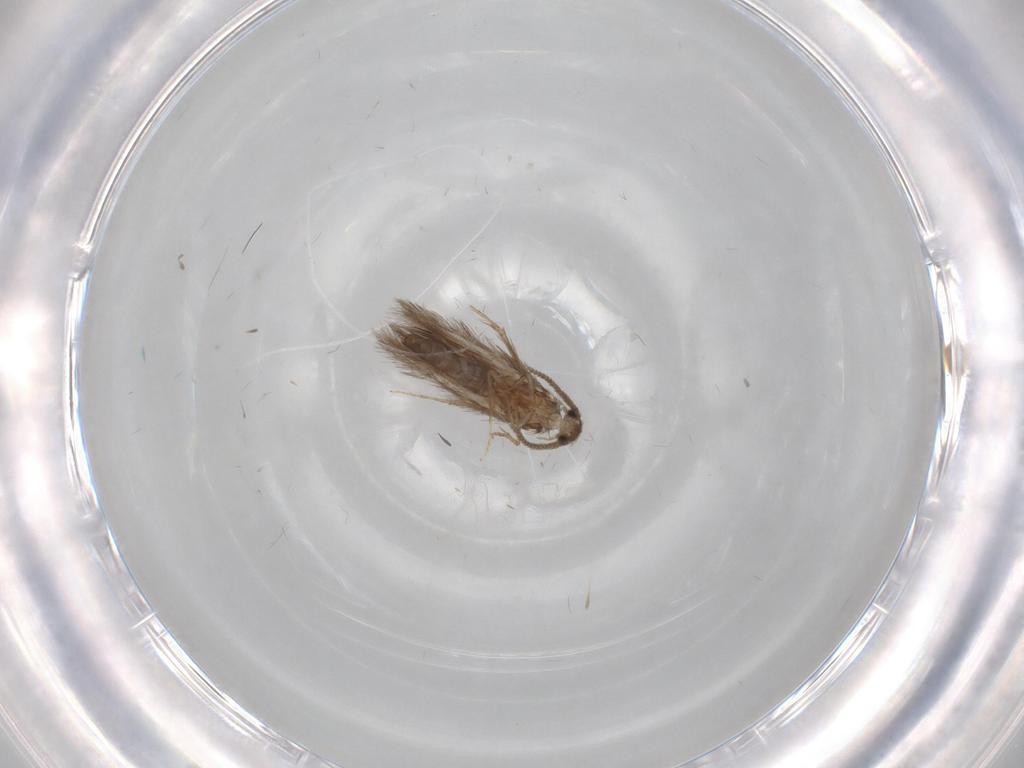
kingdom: Animalia
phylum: Arthropoda
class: Insecta
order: Trichoptera
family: Hydroptilidae
